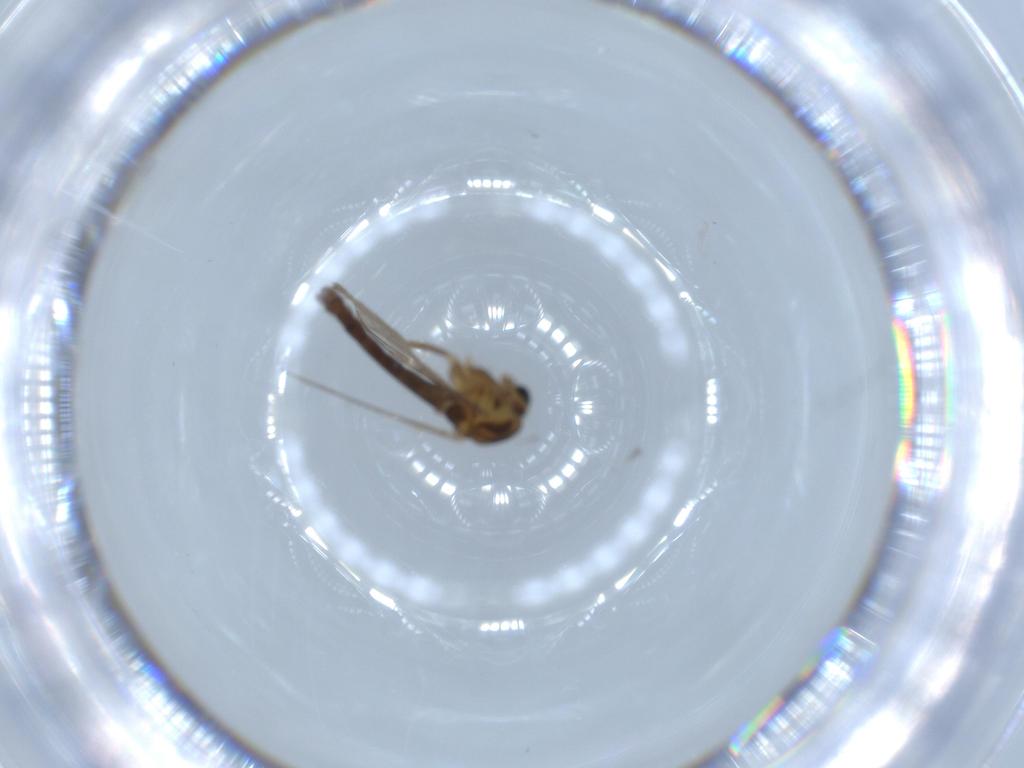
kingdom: Animalia
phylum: Arthropoda
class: Insecta
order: Diptera
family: Chironomidae
